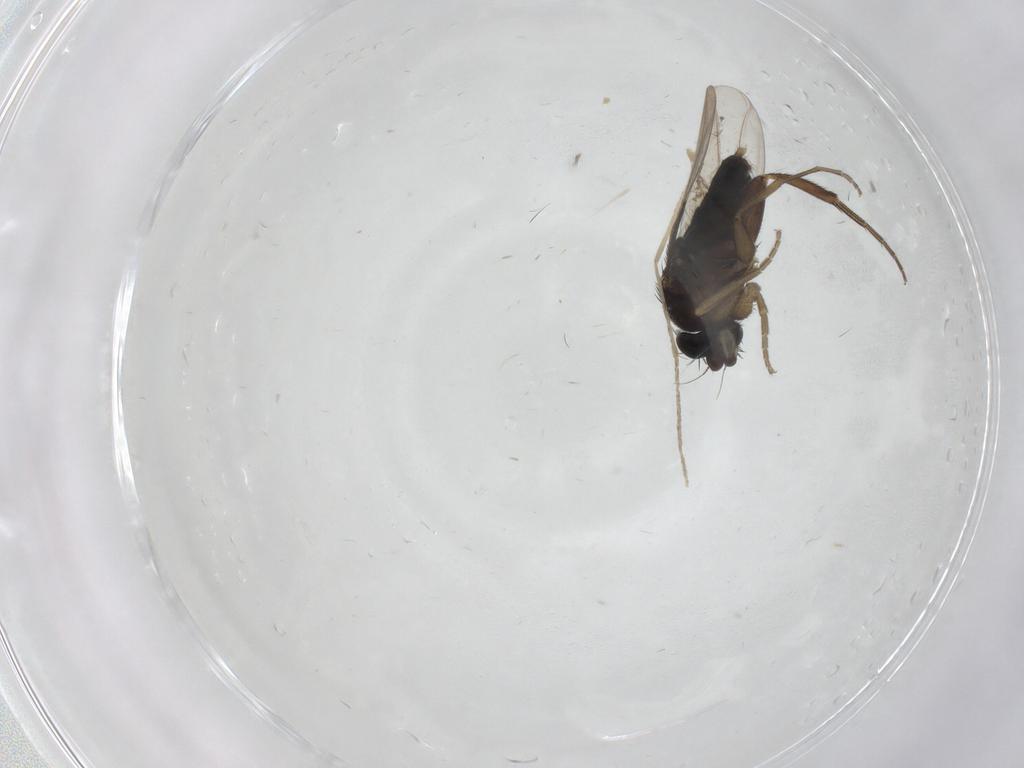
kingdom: Animalia
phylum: Arthropoda
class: Insecta
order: Diptera
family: Phoridae
